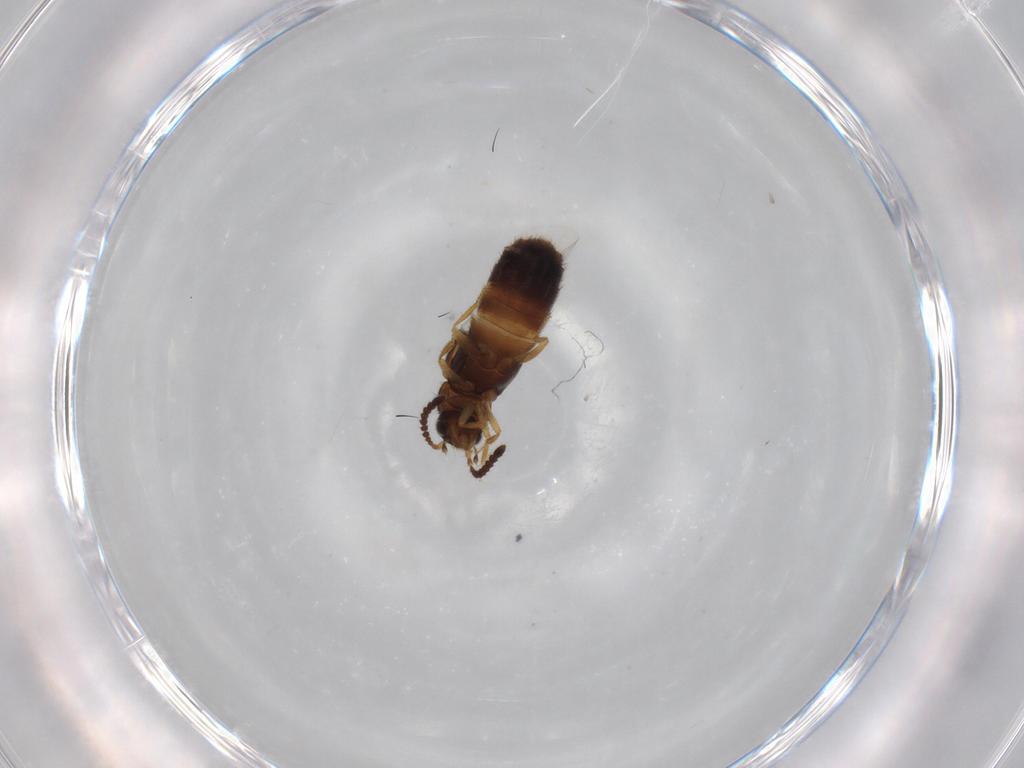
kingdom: Animalia
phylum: Arthropoda
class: Insecta
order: Coleoptera
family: Staphylinidae
